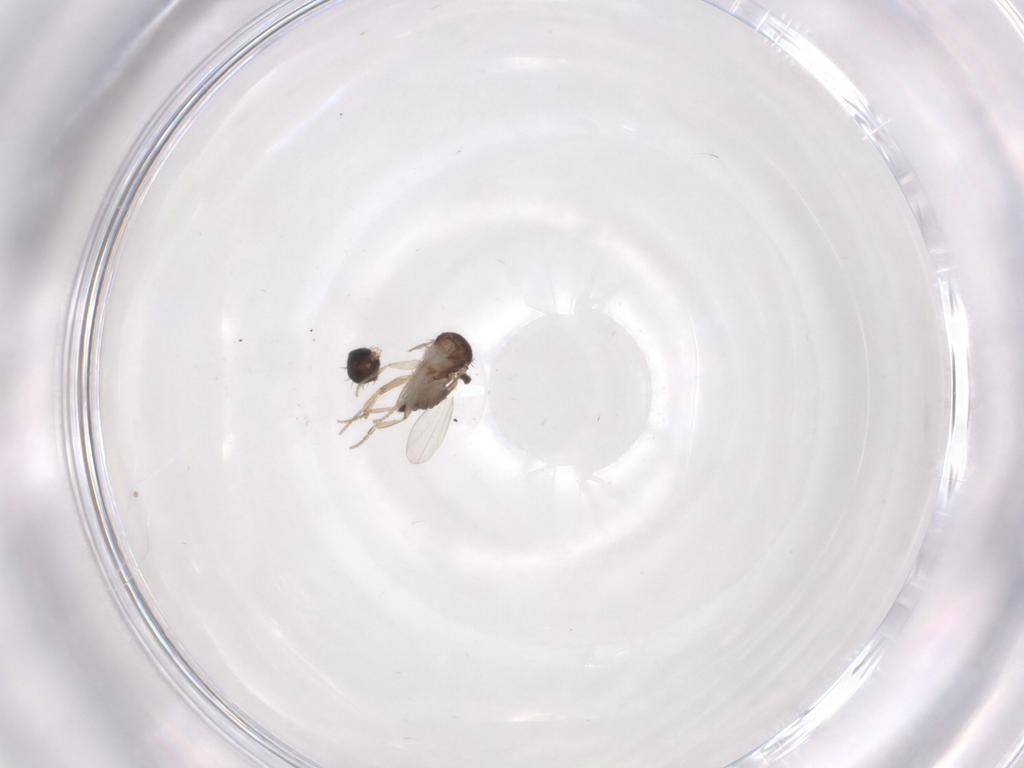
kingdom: Animalia
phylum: Arthropoda
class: Insecta
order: Diptera
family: Phoridae
